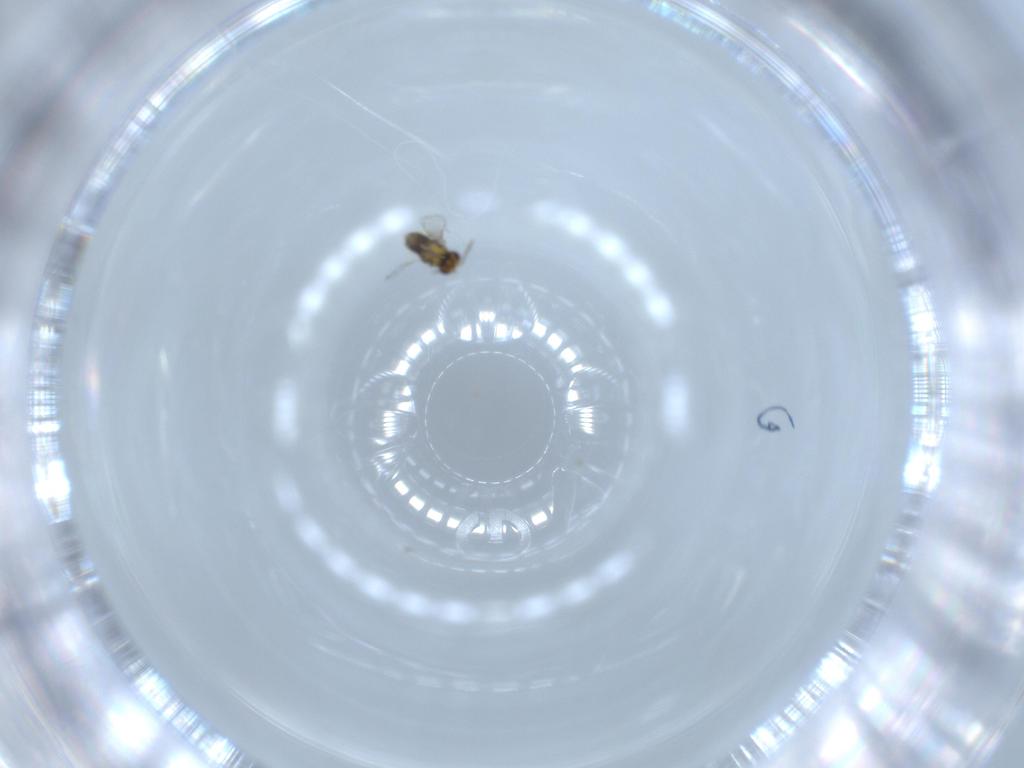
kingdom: Animalia
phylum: Arthropoda
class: Insecta
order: Hymenoptera
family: Aphelinidae
